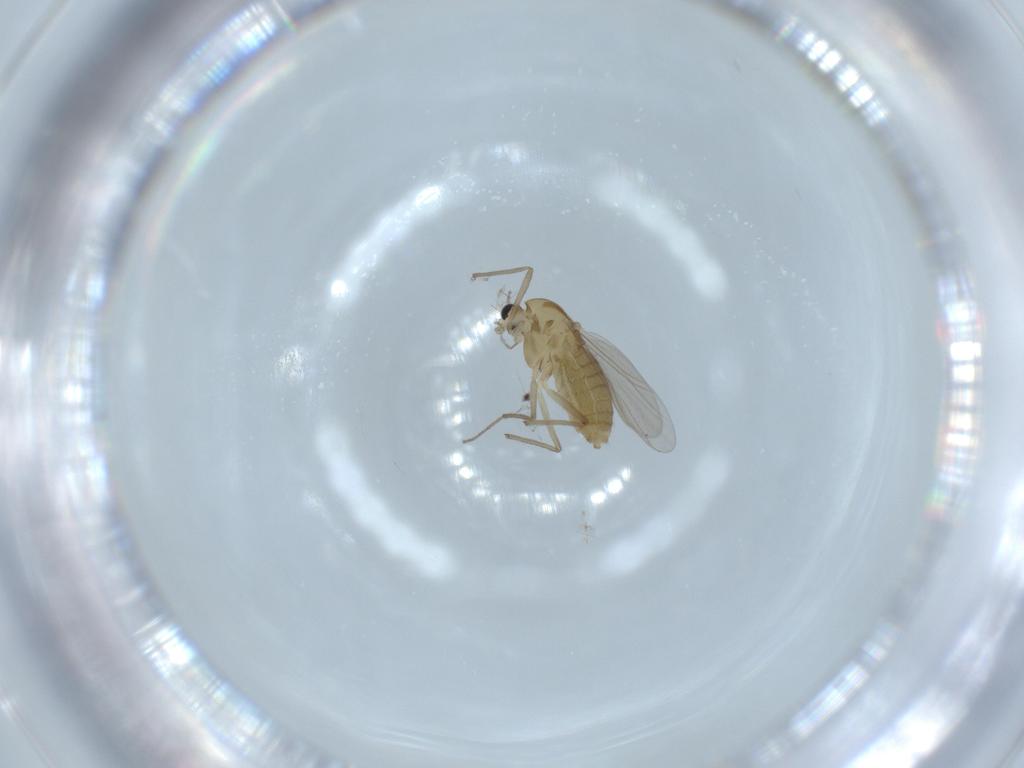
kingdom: Animalia
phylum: Arthropoda
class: Insecta
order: Diptera
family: Chironomidae
